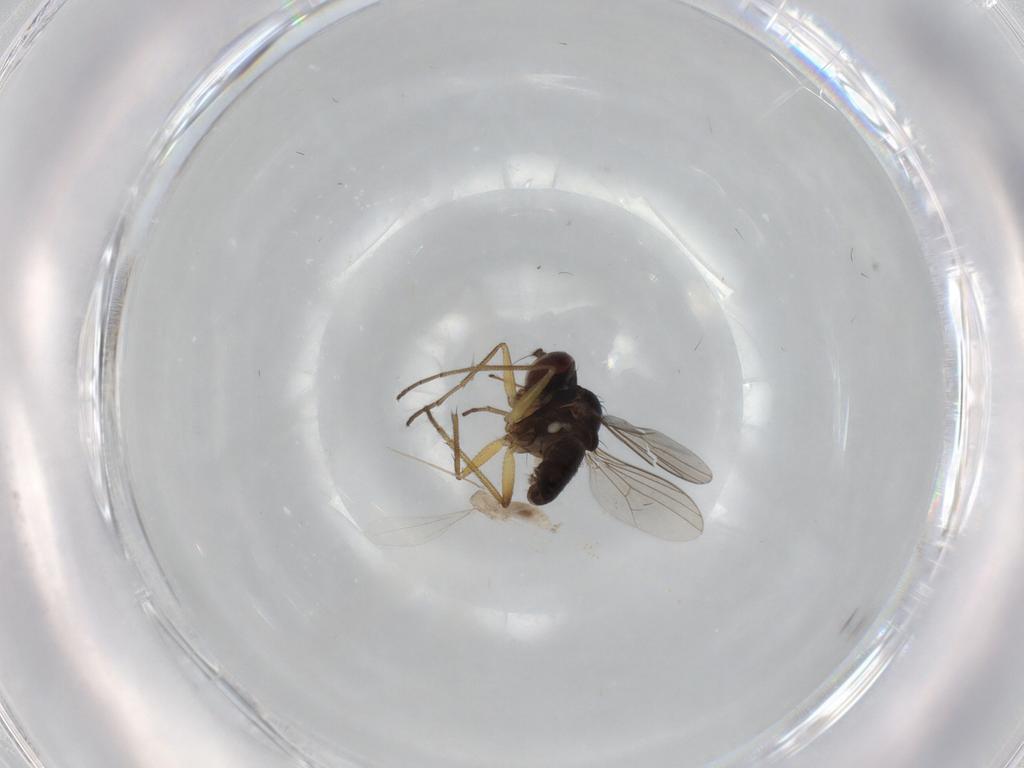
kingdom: Animalia
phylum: Arthropoda
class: Insecta
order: Diptera
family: Dolichopodidae
